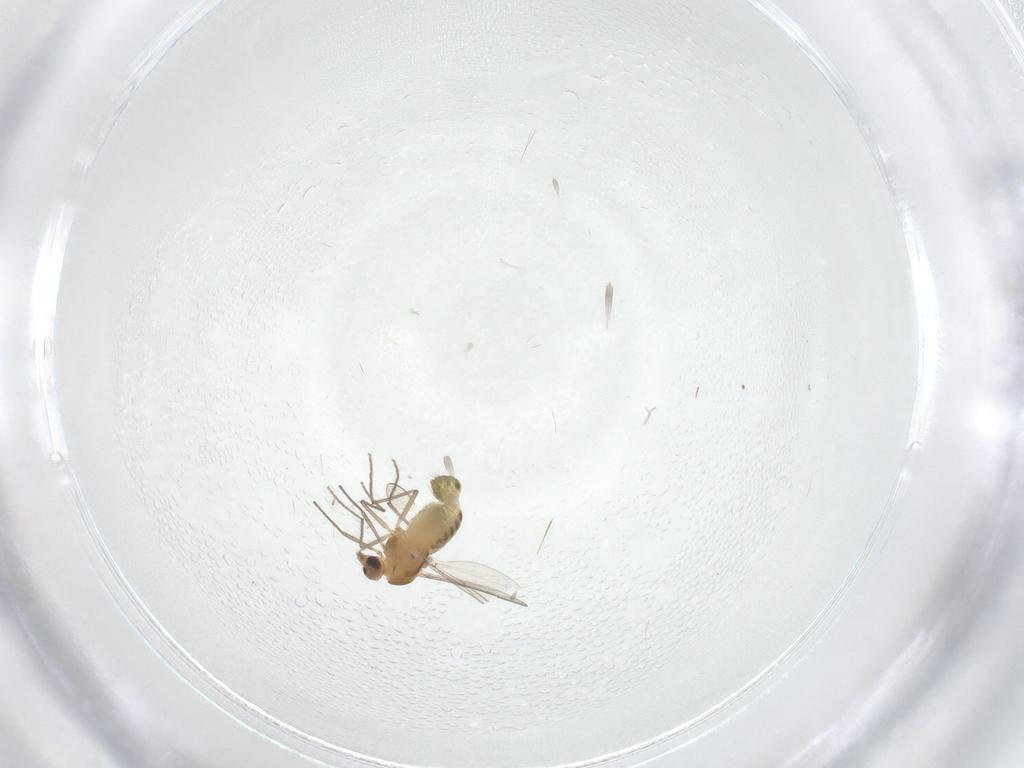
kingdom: Animalia
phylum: Arthropoda
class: Insecta
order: Diptera
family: Chironomidae
